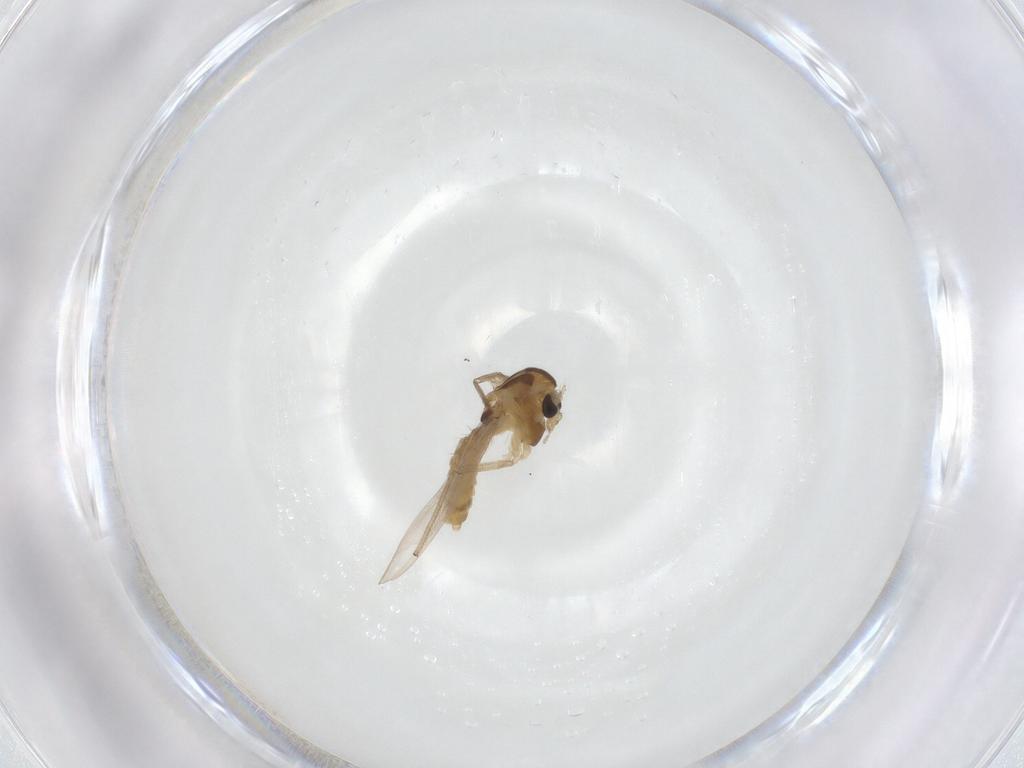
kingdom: Animalia
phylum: Arthropoda
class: Insecta
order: Diptera
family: Chironomidae
